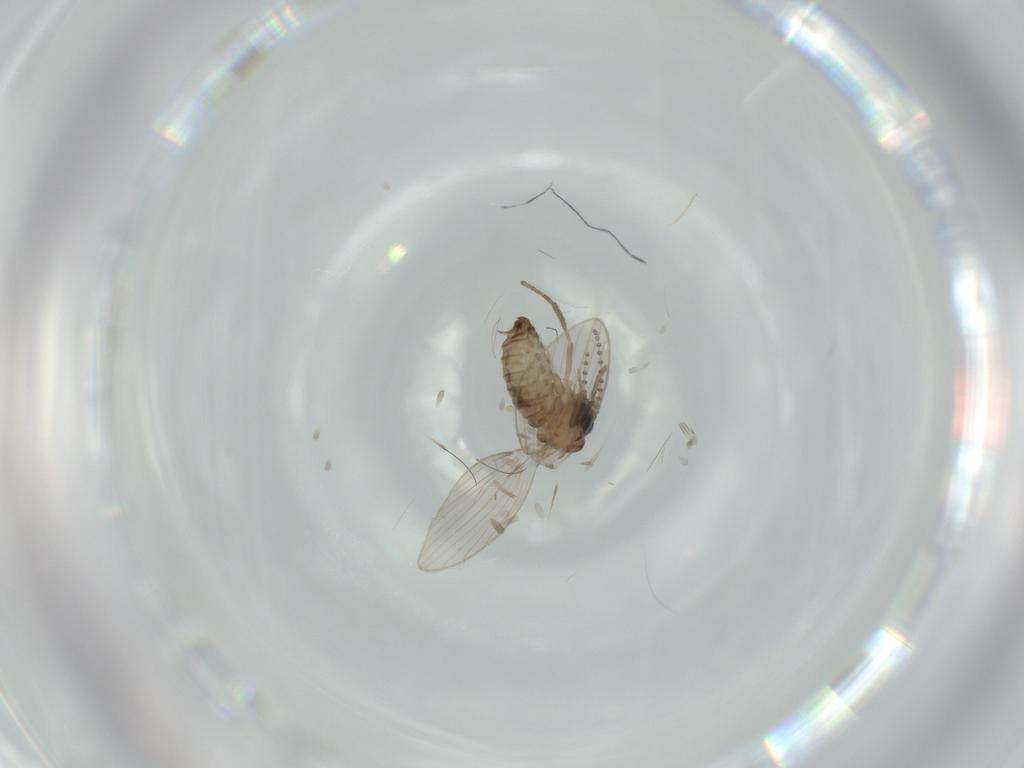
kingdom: Animalia
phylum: Arthropoda
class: Insecta
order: Diptera
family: Psychodidae
